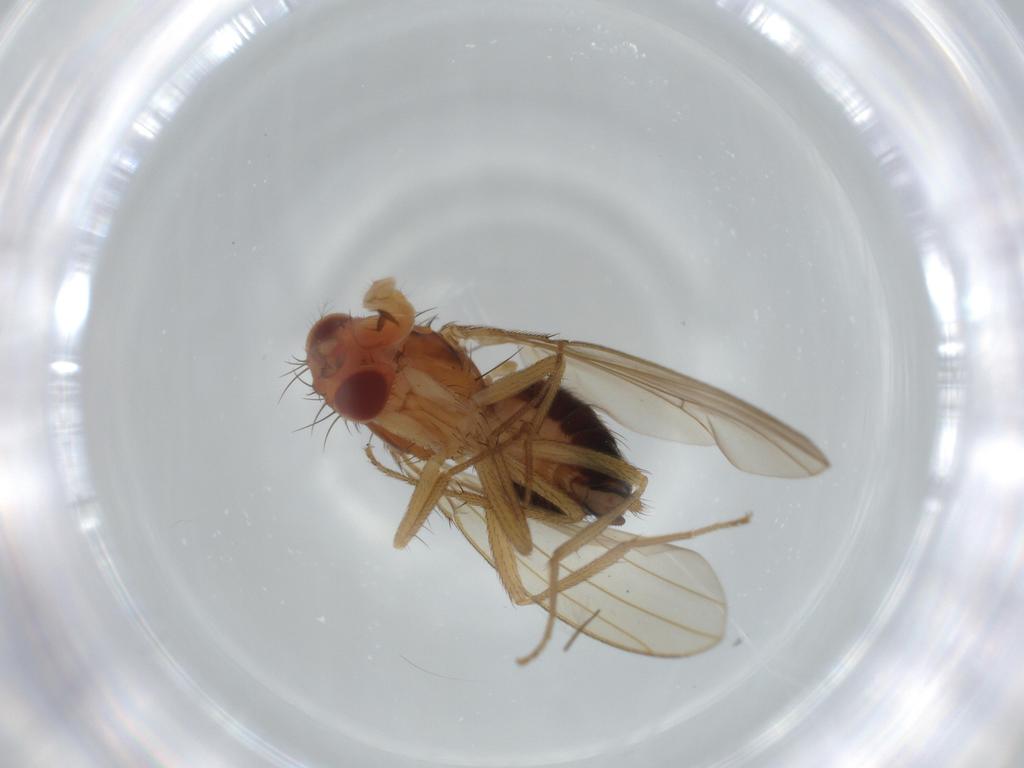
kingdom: Animalia
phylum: Arthropoda
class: Insecta
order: Diptera
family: Drosophilidae
